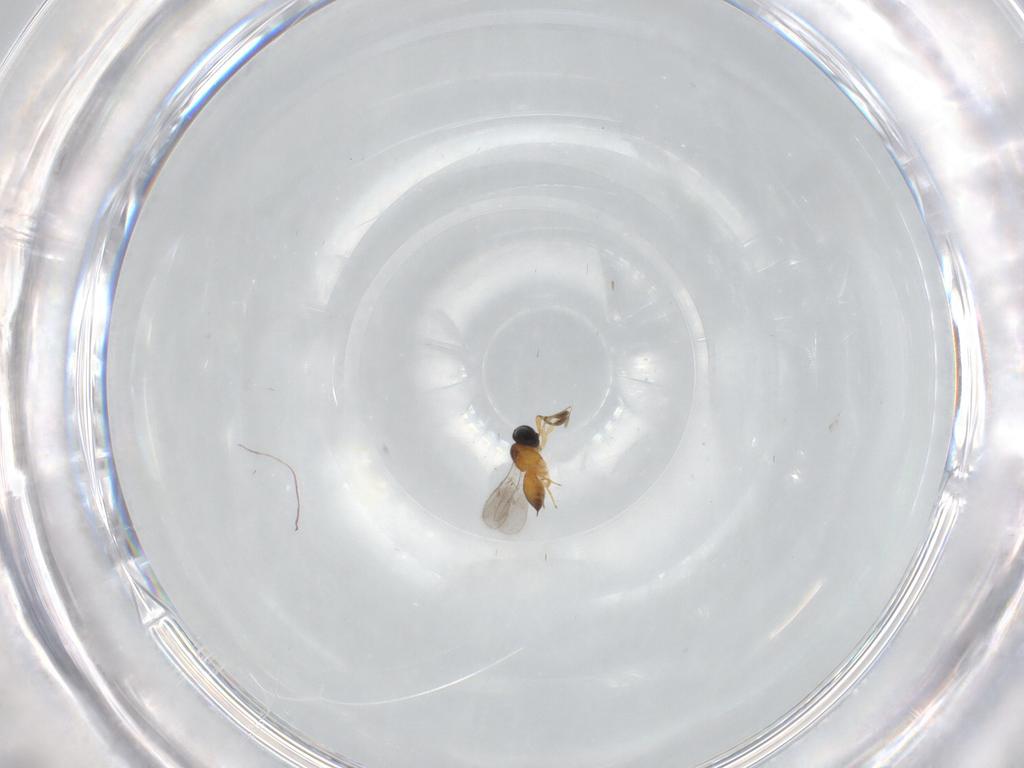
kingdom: Animalia
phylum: Arthropoda
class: Insecta
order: Hymenoptera
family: Scelionidae
